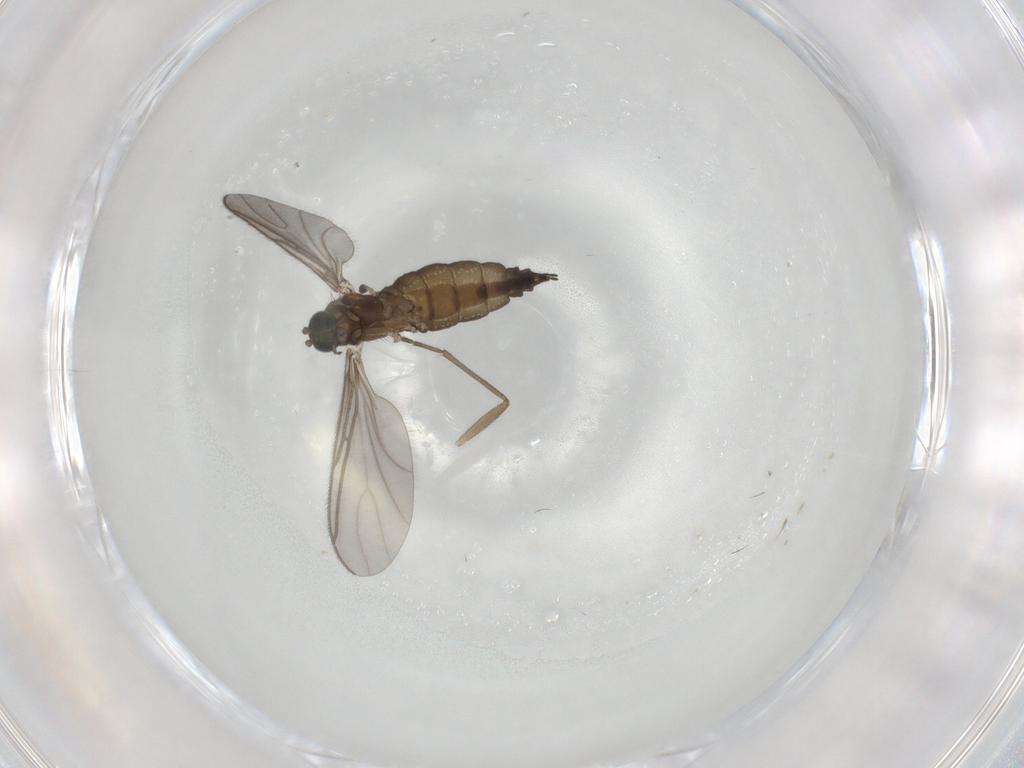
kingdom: Animalia
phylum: Arthropoda
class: Insecta
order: Diptera
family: Sciaridae
